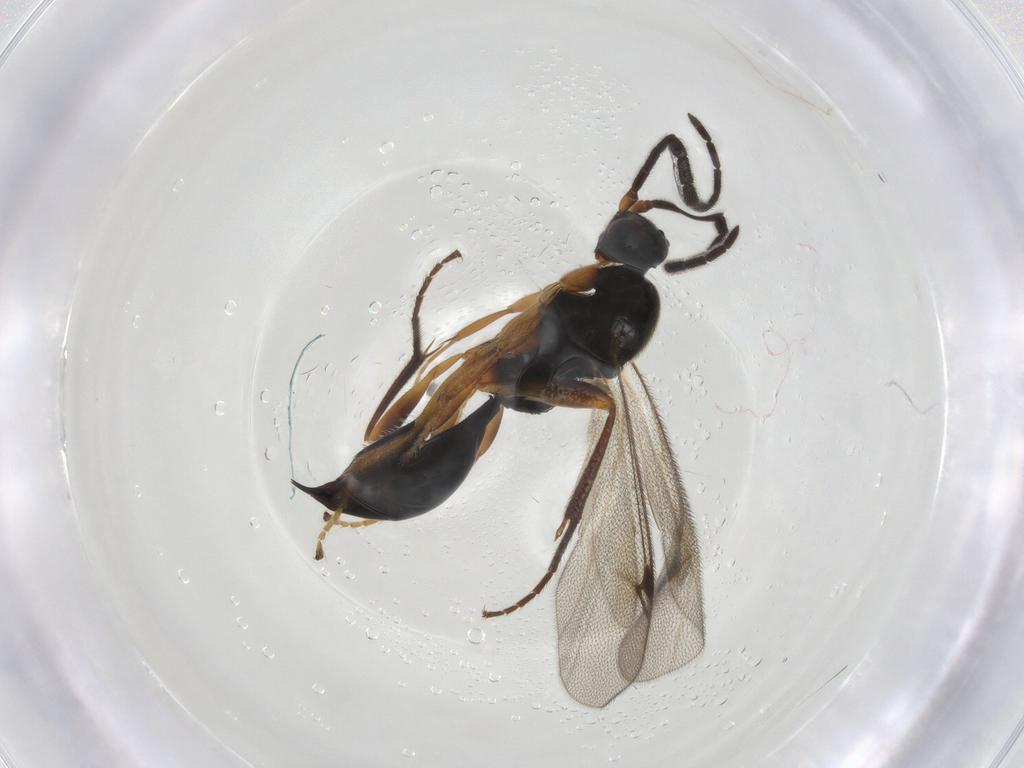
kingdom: Animalia
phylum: Arthropoda
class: Insecta
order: Hymenoptera
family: Proctotrupidae
